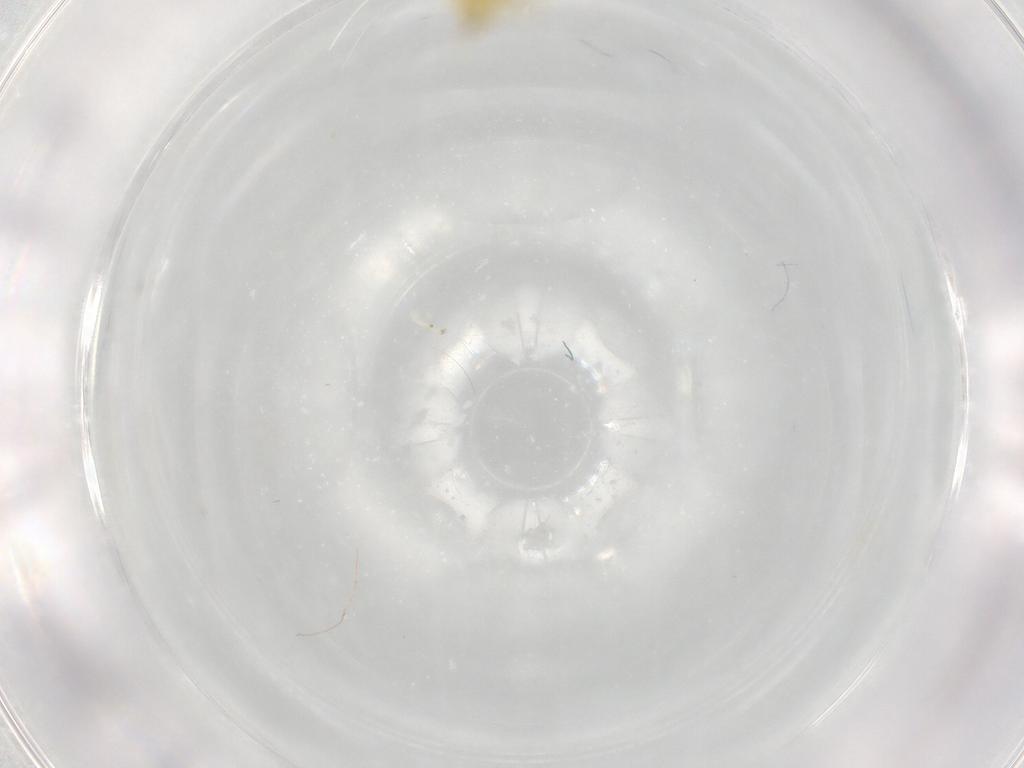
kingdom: Animalia
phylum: Arthropoda
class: Insecta
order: Hemiptera
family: Cicadellidae
